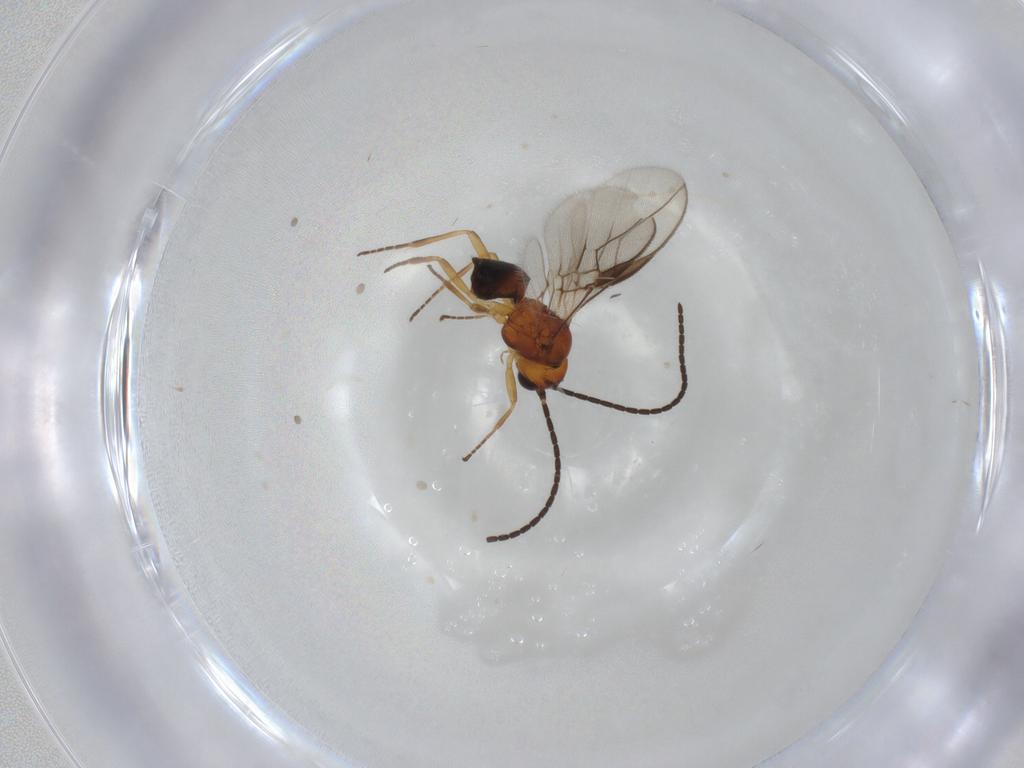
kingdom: Animalia
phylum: Arthropoda
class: Insecta
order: Hymenoptera
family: Braconidae
